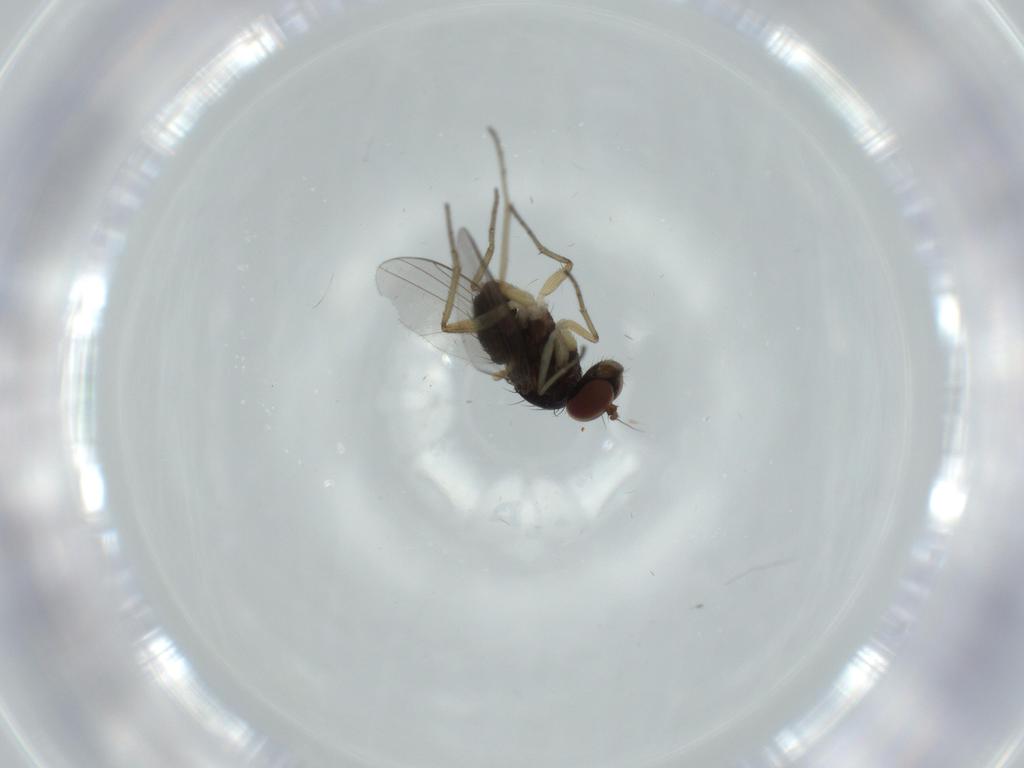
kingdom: Animalia
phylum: Arthropoda
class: Insecta
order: Diptera
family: Dolichopodidae
